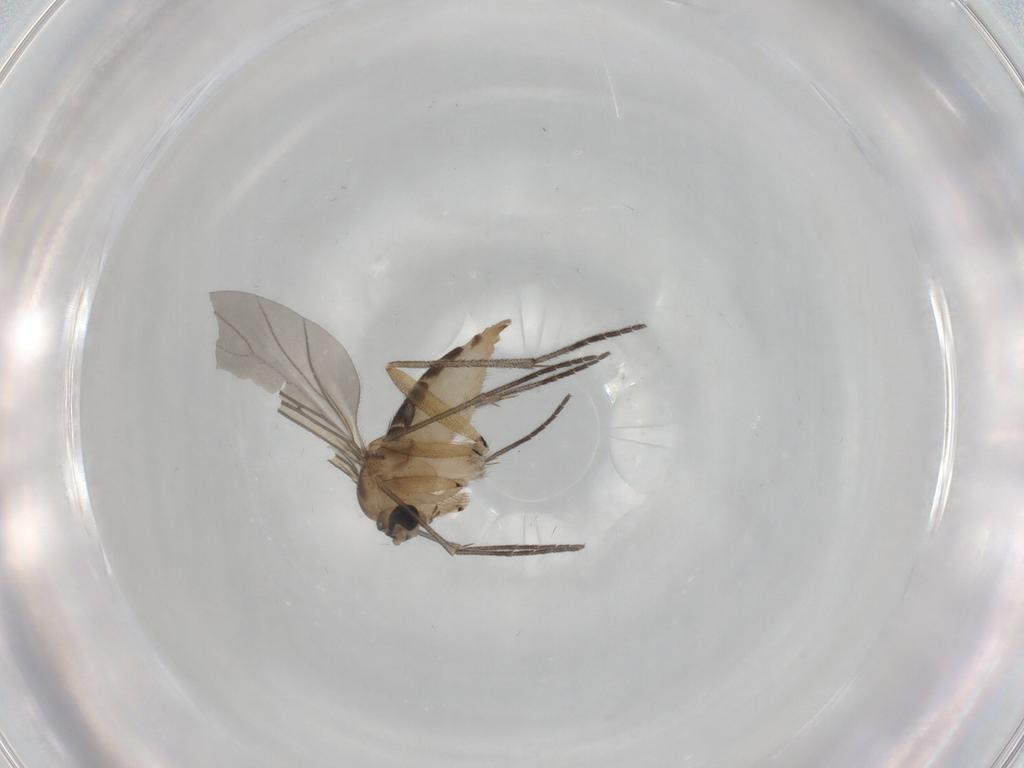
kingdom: Animalia
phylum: Arthropoda
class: Insecta
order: Diptera
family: Sciaridae
